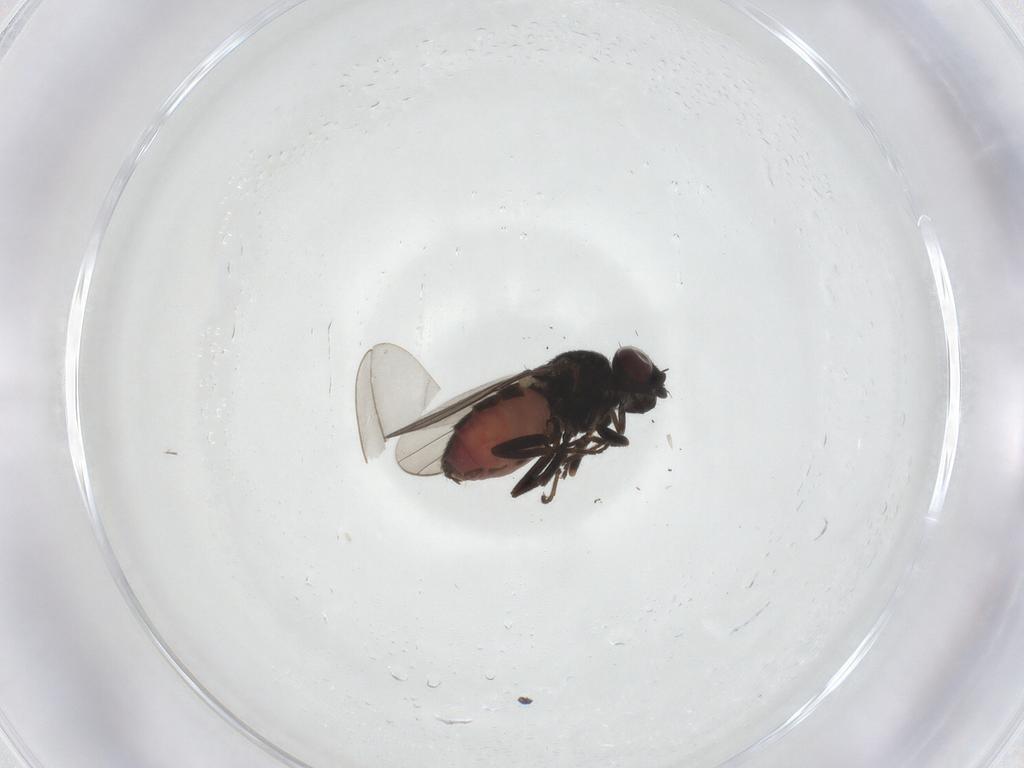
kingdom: Animalia
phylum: Arthropoda
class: Insecta
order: Diptera
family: Chloropidae
